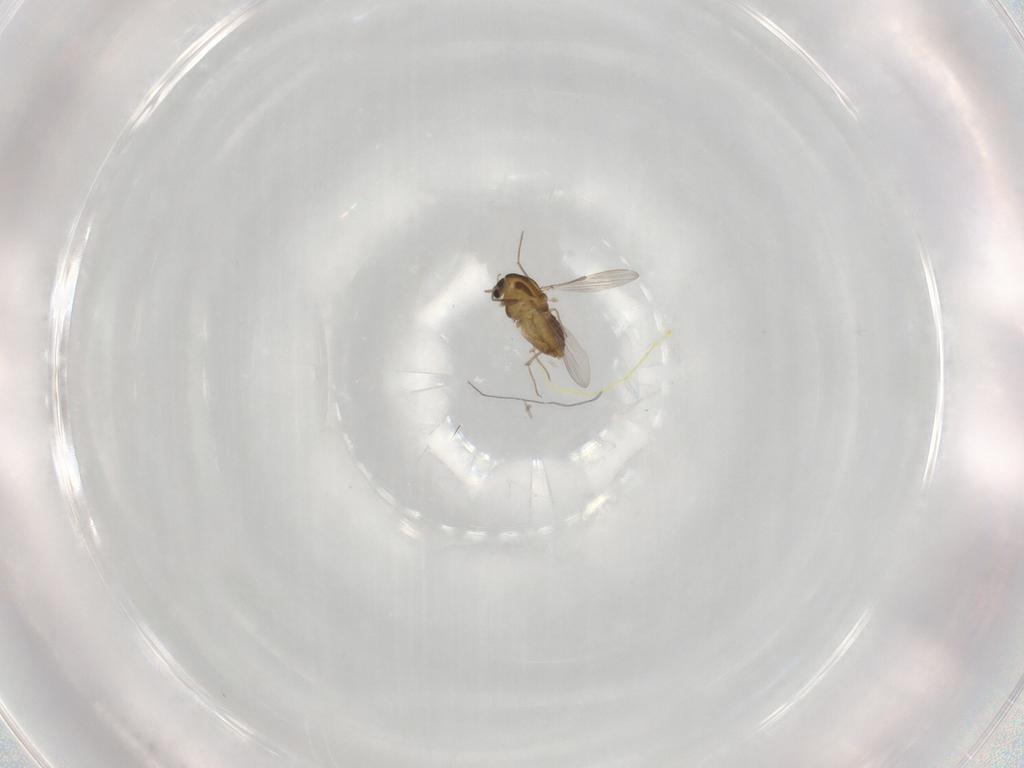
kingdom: Animalia
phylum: Arthropoda
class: Insecta
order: Diptera
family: Chironomidae
